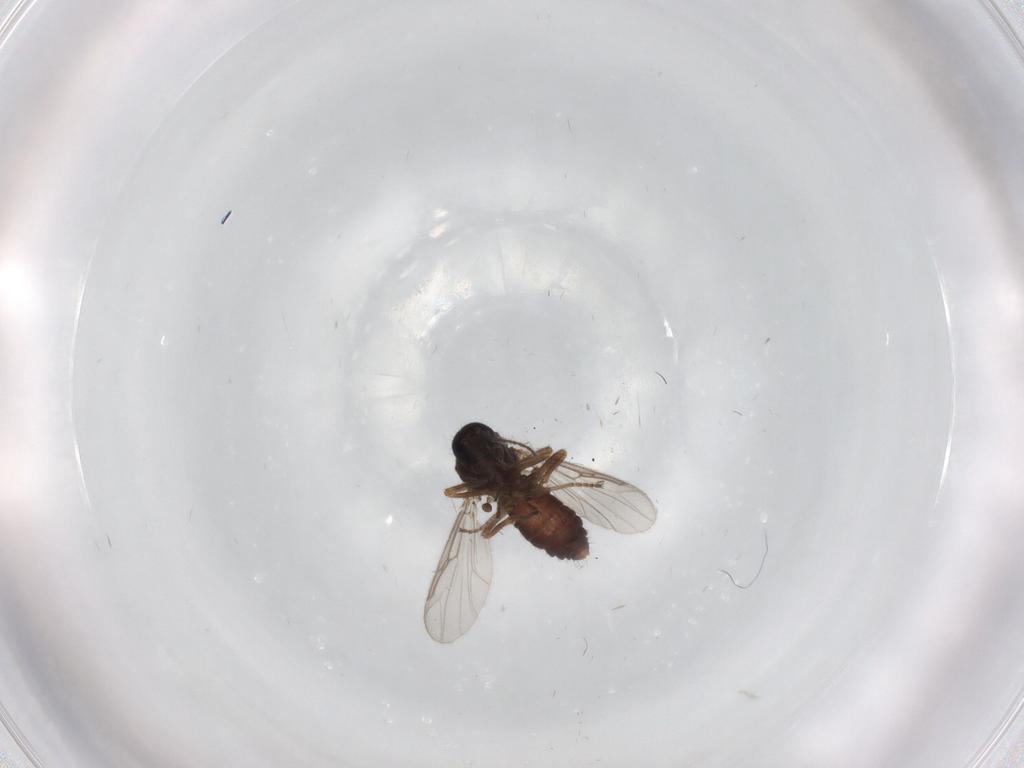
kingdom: Animalia
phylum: Arthropoda
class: Insecta
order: Diptera
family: Ceratopogonidae
